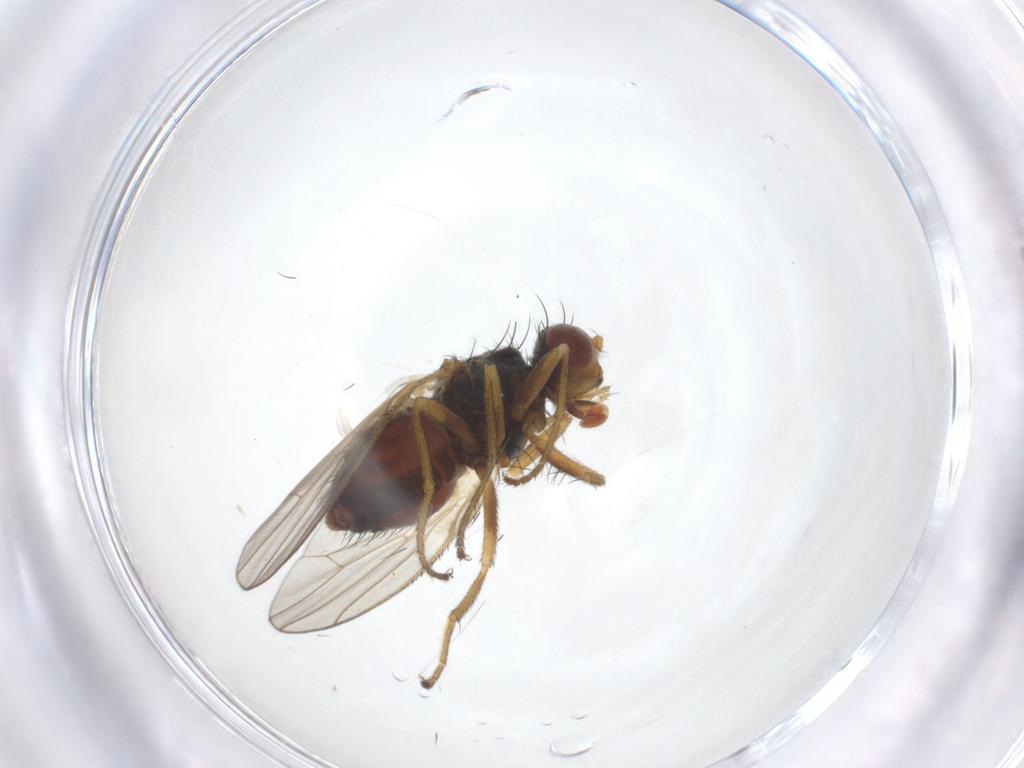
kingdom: Animalia
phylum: Arthropoda
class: Insecta
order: Diptera
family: Heleomyzidae
